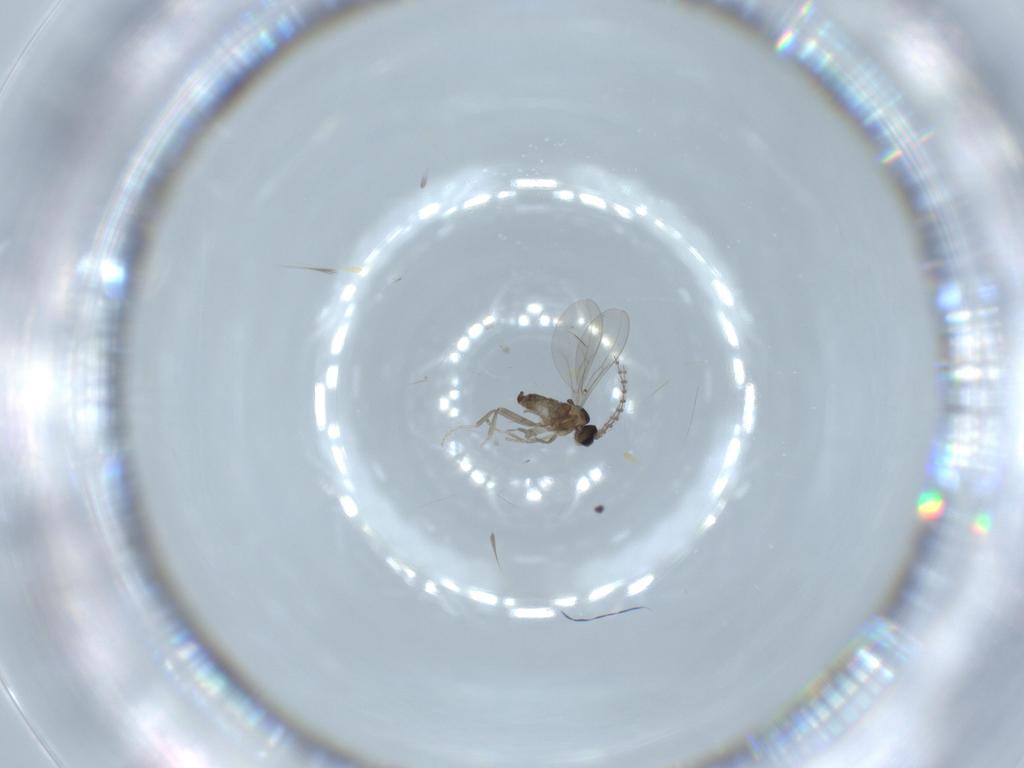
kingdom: Animalia
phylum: Arthropoda
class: Insecta
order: Diptera
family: Cecidomyiidae
